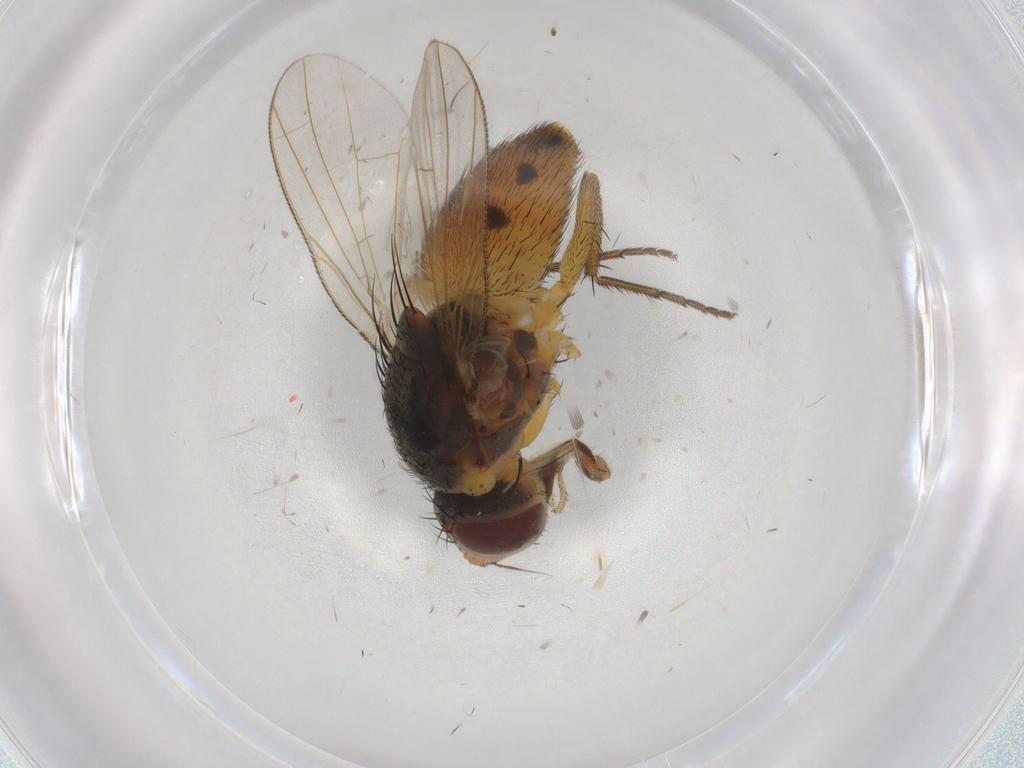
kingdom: Animalia
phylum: Arthropoda
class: Insecta
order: Diptera
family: Muscidae
